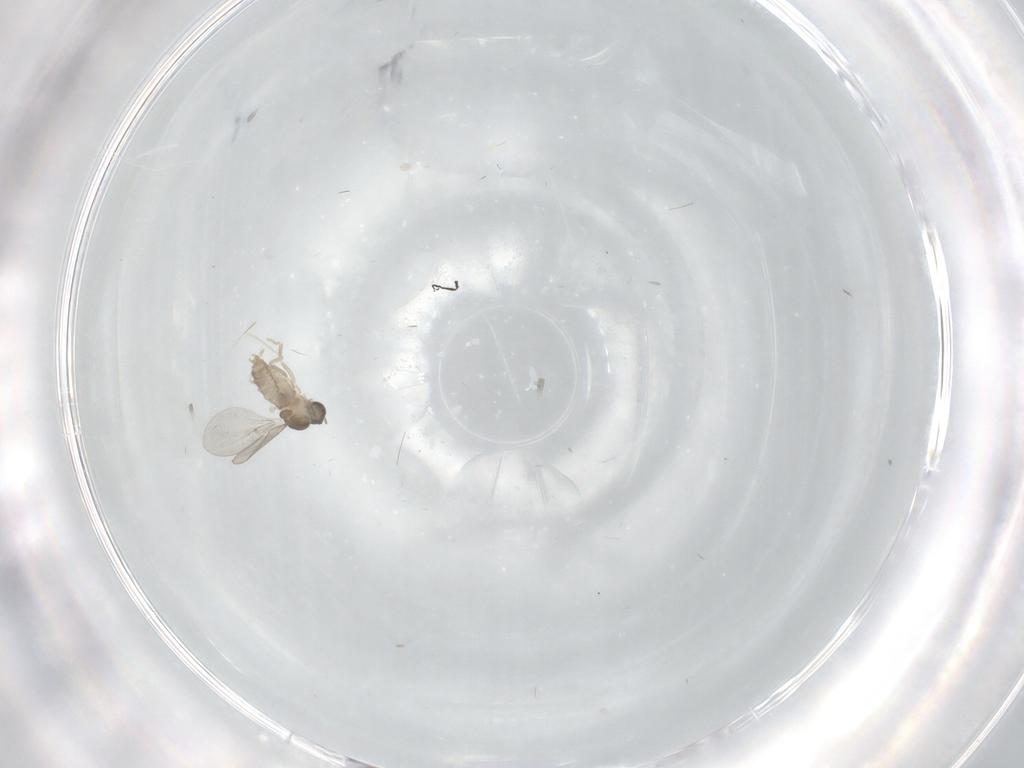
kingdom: Animalia
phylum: Arthropoda
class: Insecta
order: Diptera
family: Cecidomyiidae
